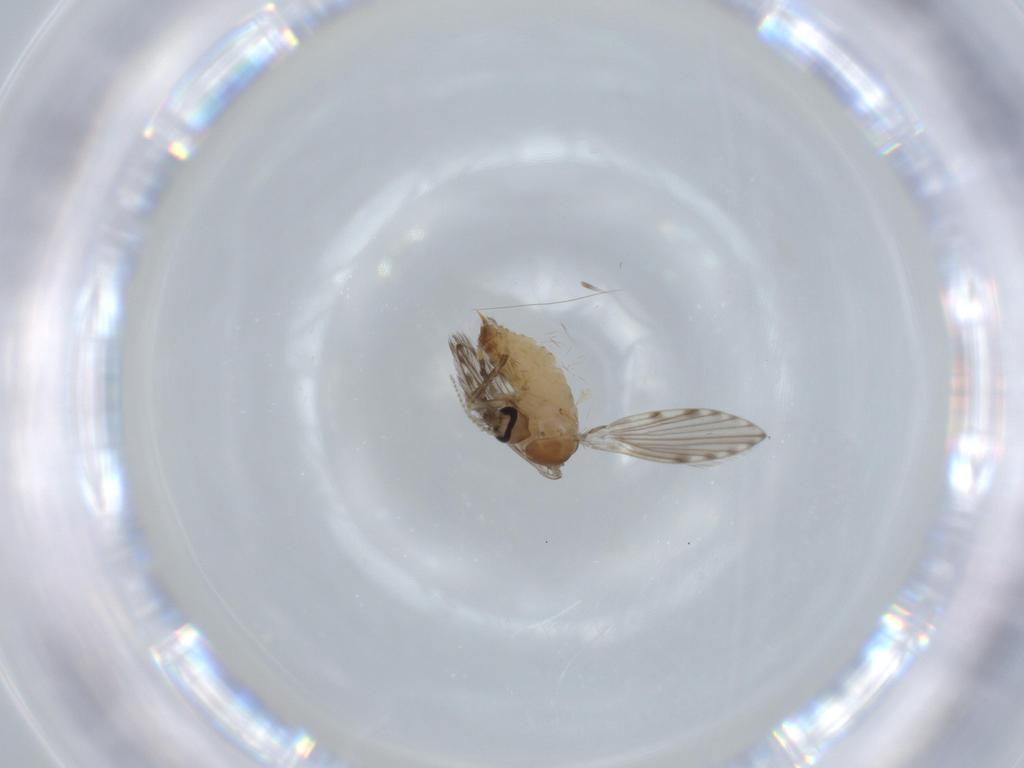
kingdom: Animalia
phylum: Arthropoda
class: Insecta
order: Diptera
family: Psychodidae
